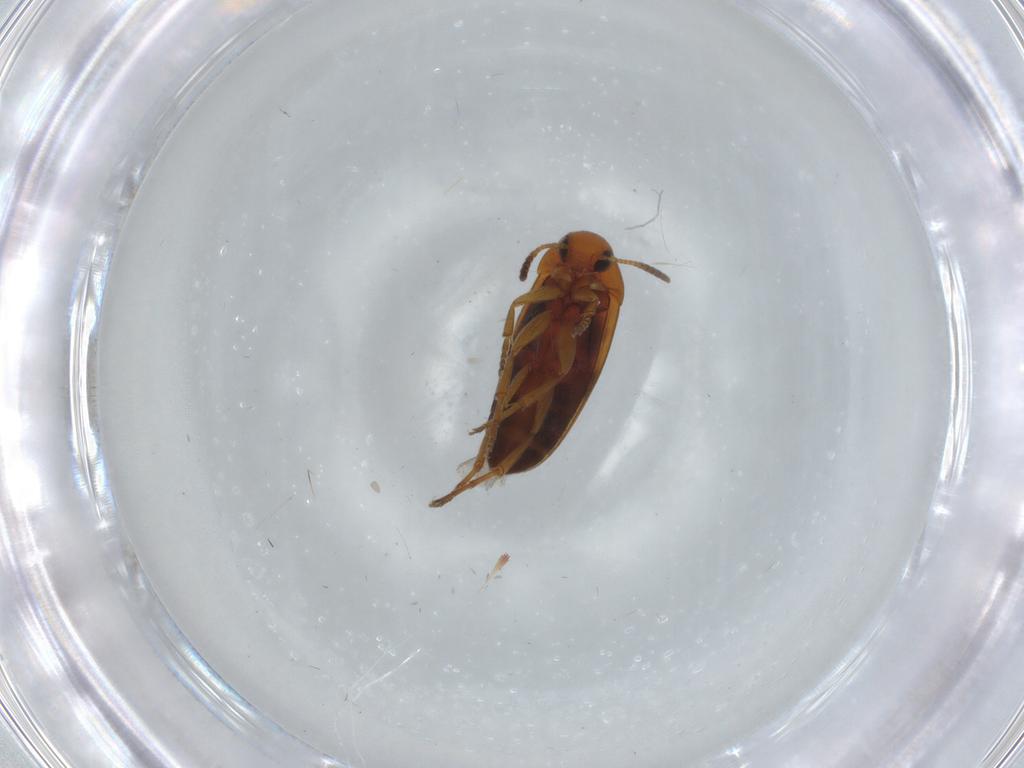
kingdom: Animalia
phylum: Arthropoda
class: Insecta
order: Coleoptera
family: Scraptiidae
